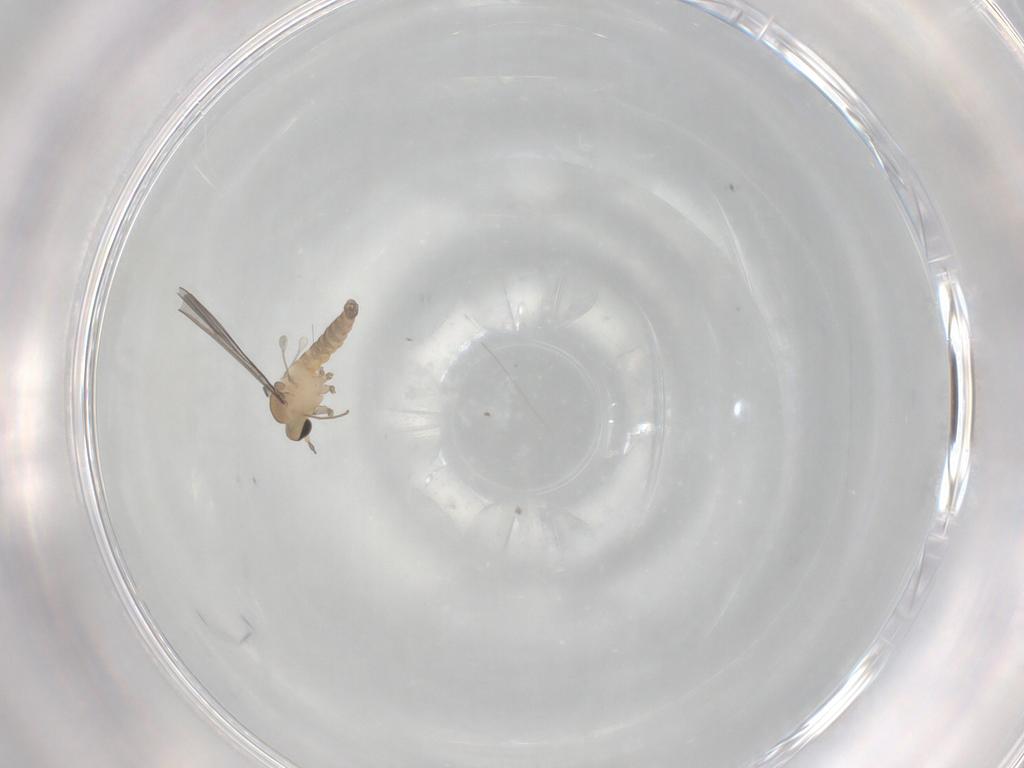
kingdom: Animalia
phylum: Arthropoda
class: Insecta
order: Diptera
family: Cecidomyiidae
